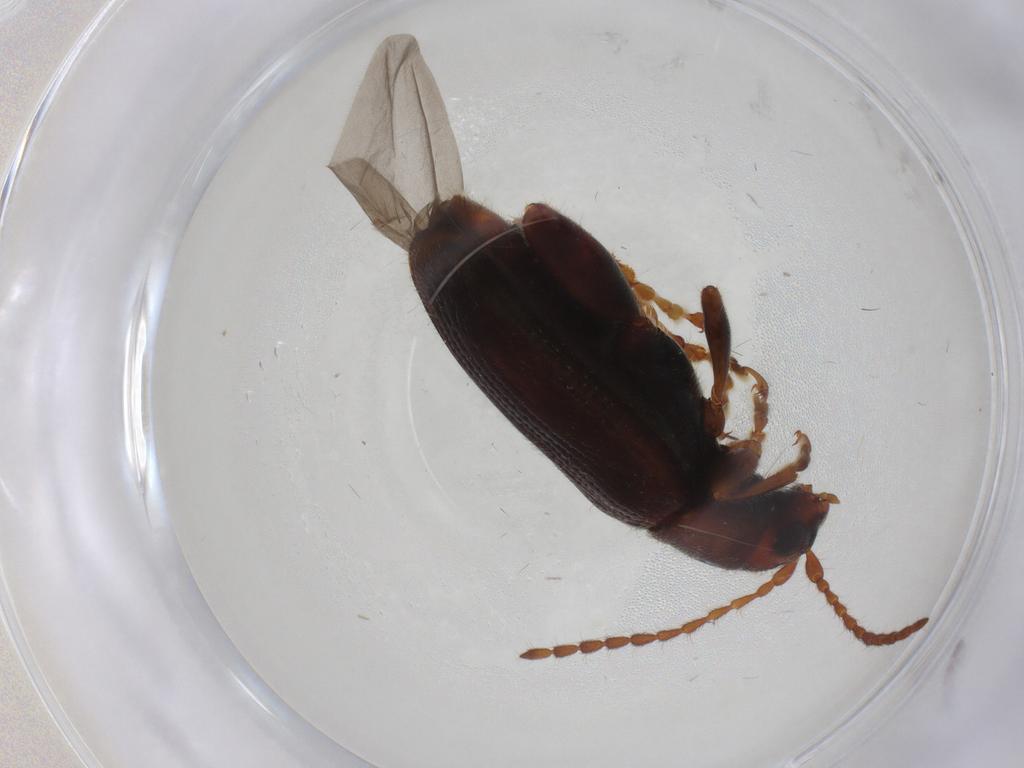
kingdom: Animalia
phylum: Arthropoda
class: Insecta
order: Coleoptera
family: Chrysomelidae
